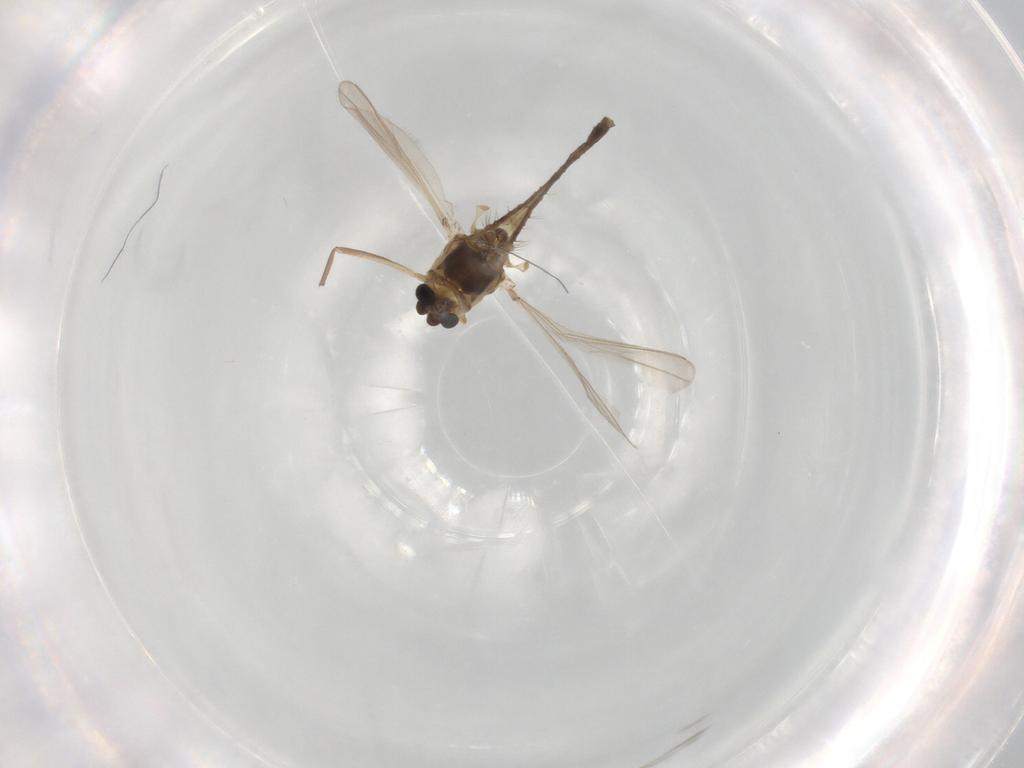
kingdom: Animalia
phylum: Arthropoda
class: Insecta
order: Diptera
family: Chironomidae
